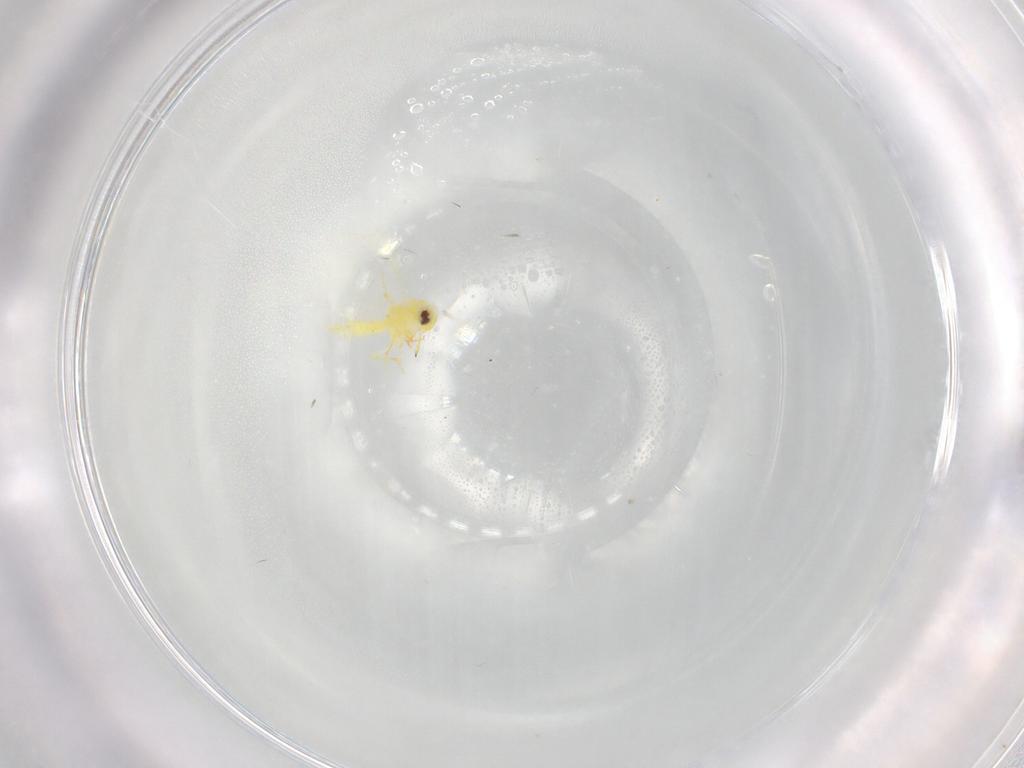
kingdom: Animalia
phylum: Arthropoda
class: Insecta
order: Hemiptera
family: Aleyrodidae
